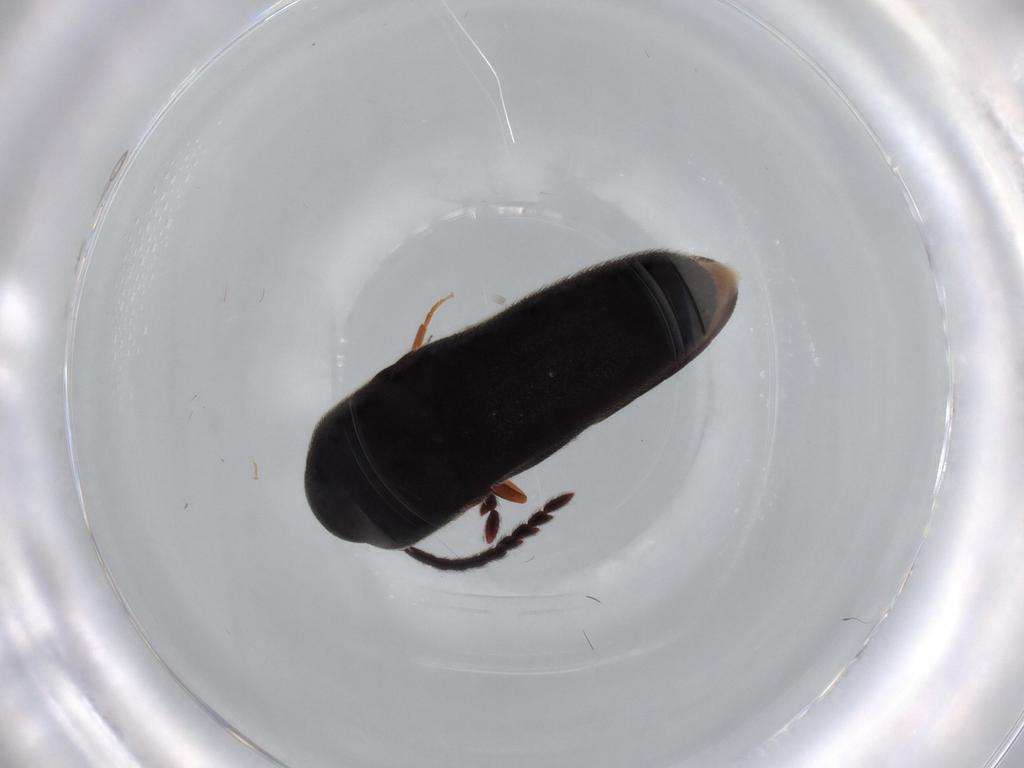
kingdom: Animalia
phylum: Arthropoda
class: Insecta
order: Coleoptera
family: Eucnemidae
